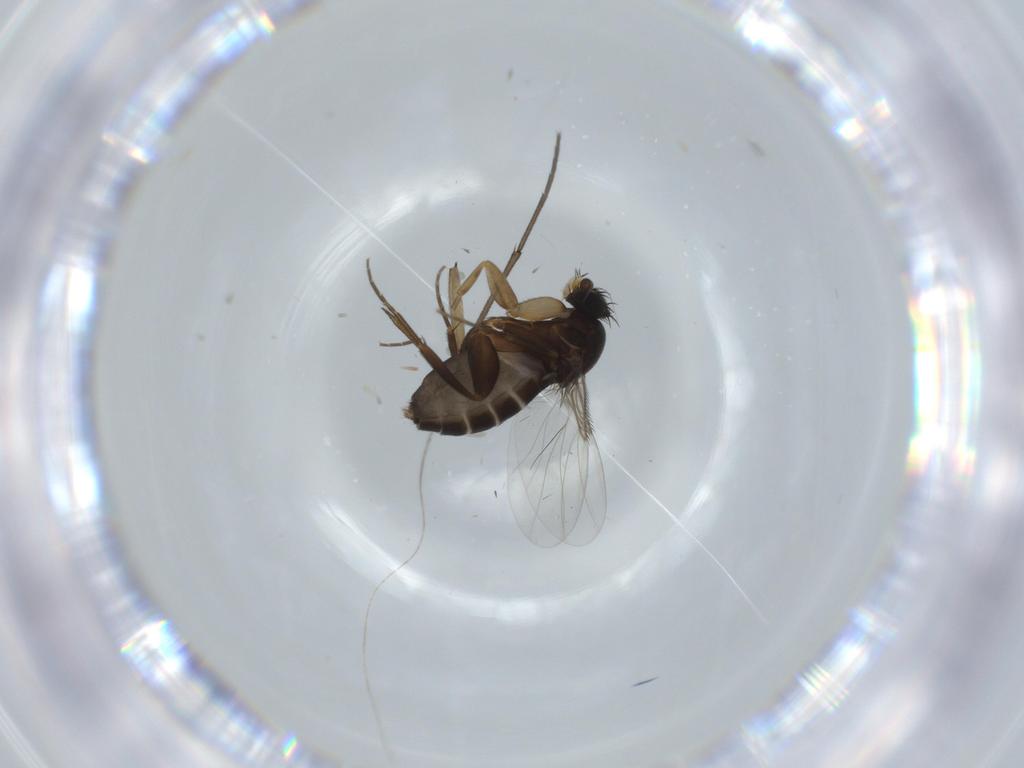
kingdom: Animalia
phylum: Arthropoda
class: Insecta
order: Diptera
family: Phoridae
